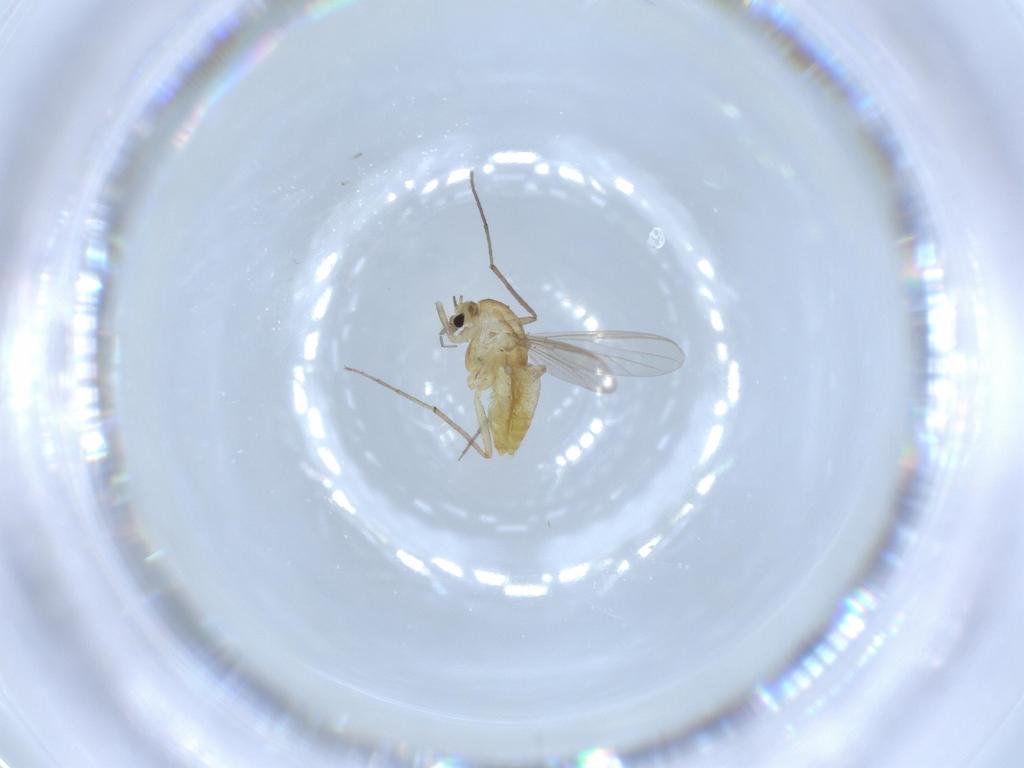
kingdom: Animalia
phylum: Arthropoda
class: Insecta
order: Diptera
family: Chironomidae
